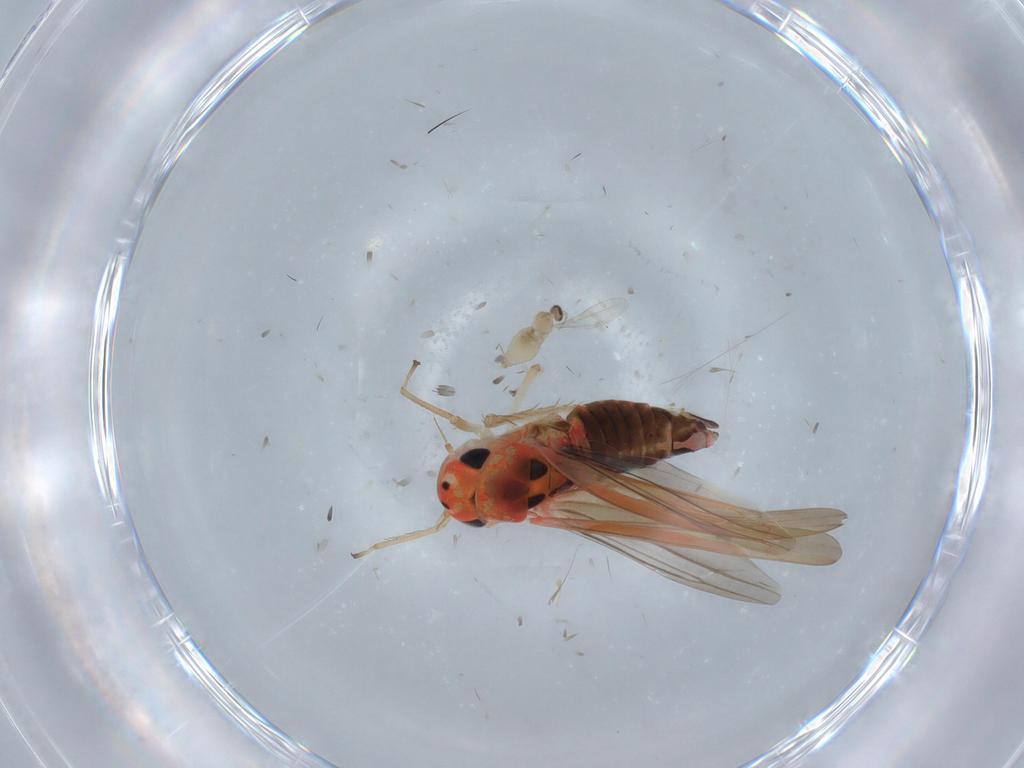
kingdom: Animalia
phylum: Arthropoda
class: Insecta
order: Hemiptera
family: Cicadellidae
